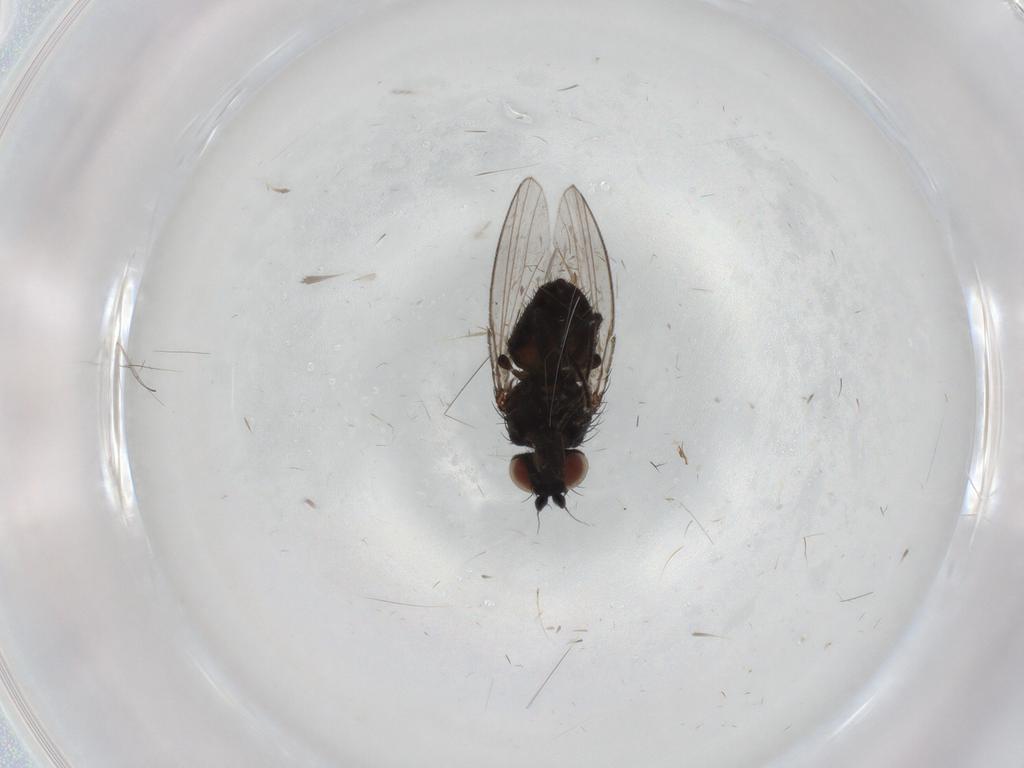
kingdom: Animalia
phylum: Arthropoda
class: Insecta
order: Diptera
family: Milichiidae
